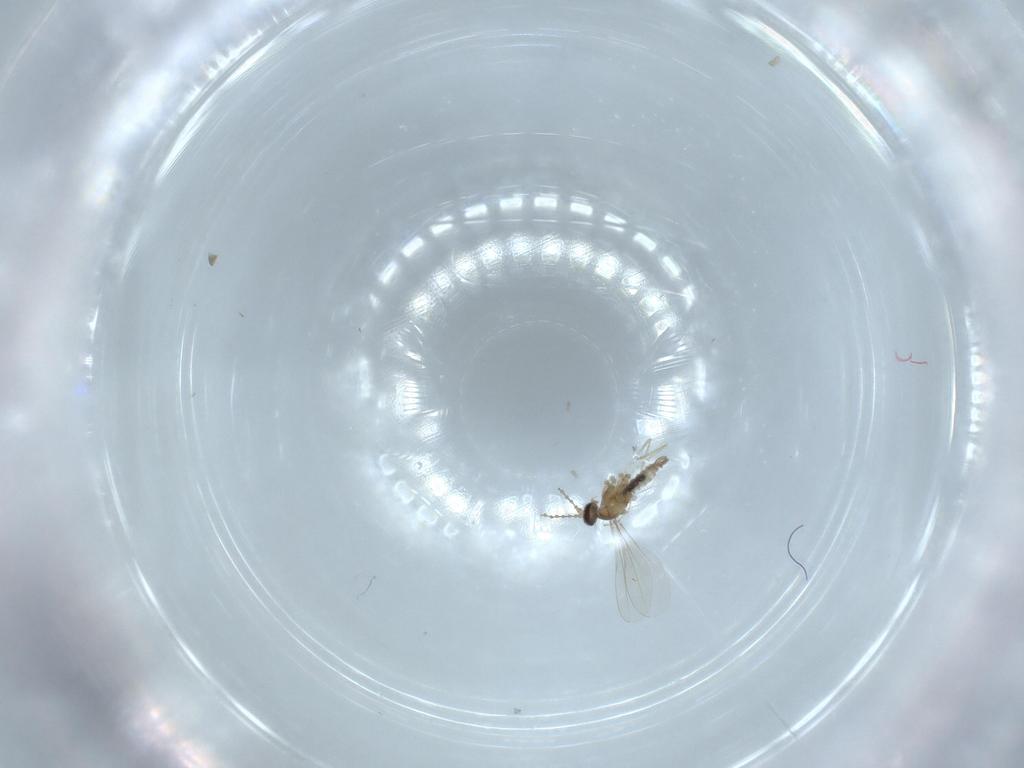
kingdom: Animalia
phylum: Arthropoda
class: Insecta
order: Diptera
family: Cecidomyiidae
